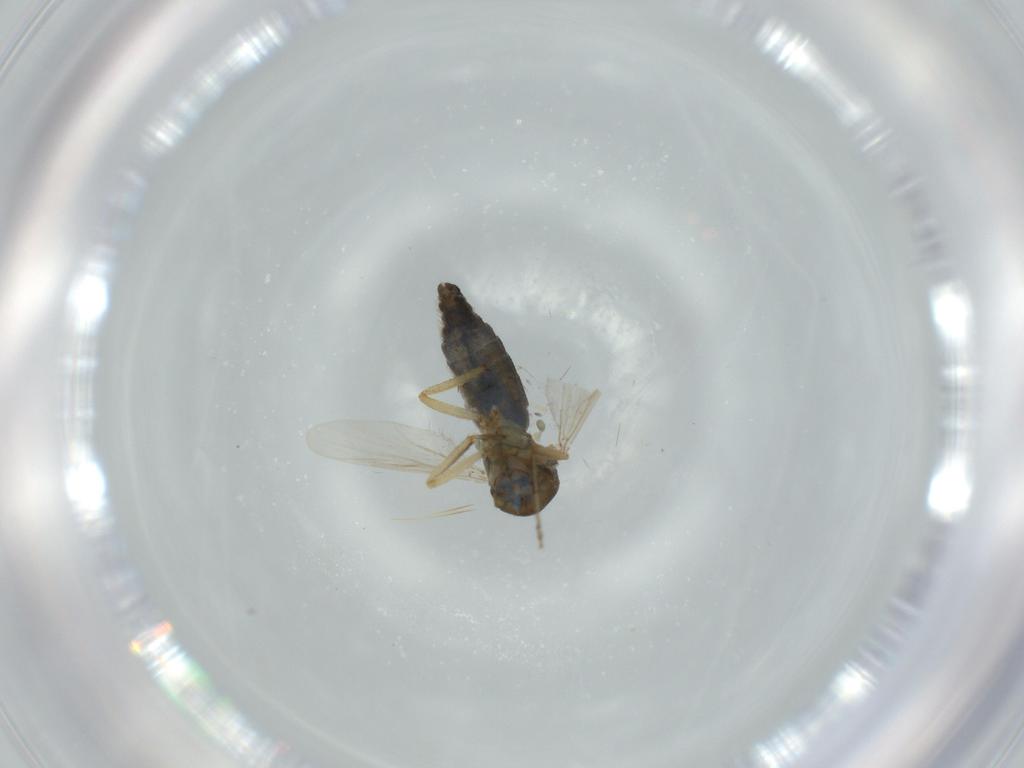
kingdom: Animalia
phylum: Arthropoda
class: Insecta
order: Diptera
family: Ceratopogonidae
